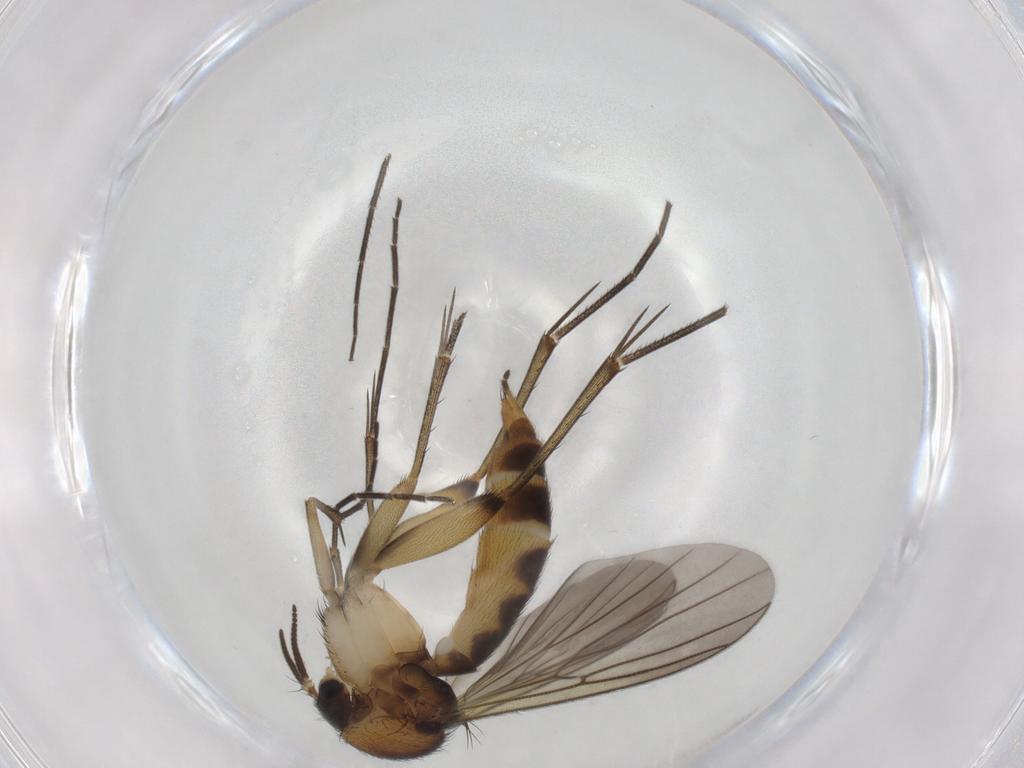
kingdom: Animalia
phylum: Arthropoda
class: Insecta
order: Diptera
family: Mycetophilidae
